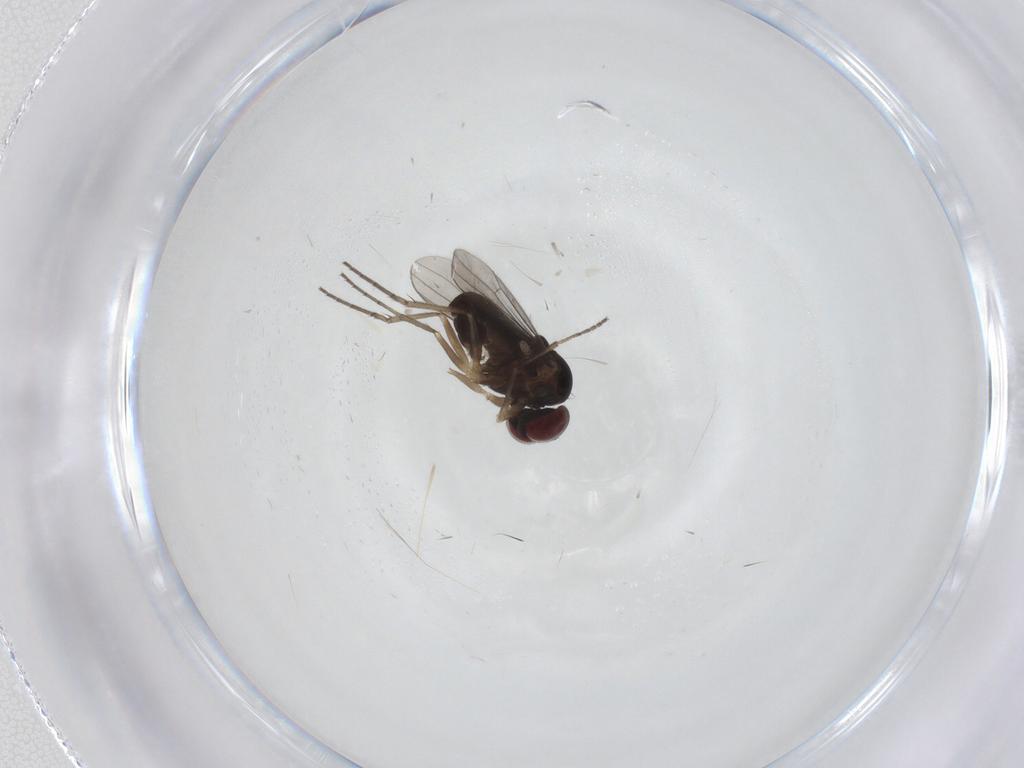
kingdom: Animalia
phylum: Arthropoda
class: Insecta
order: Diptera
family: Dolichopodidae
